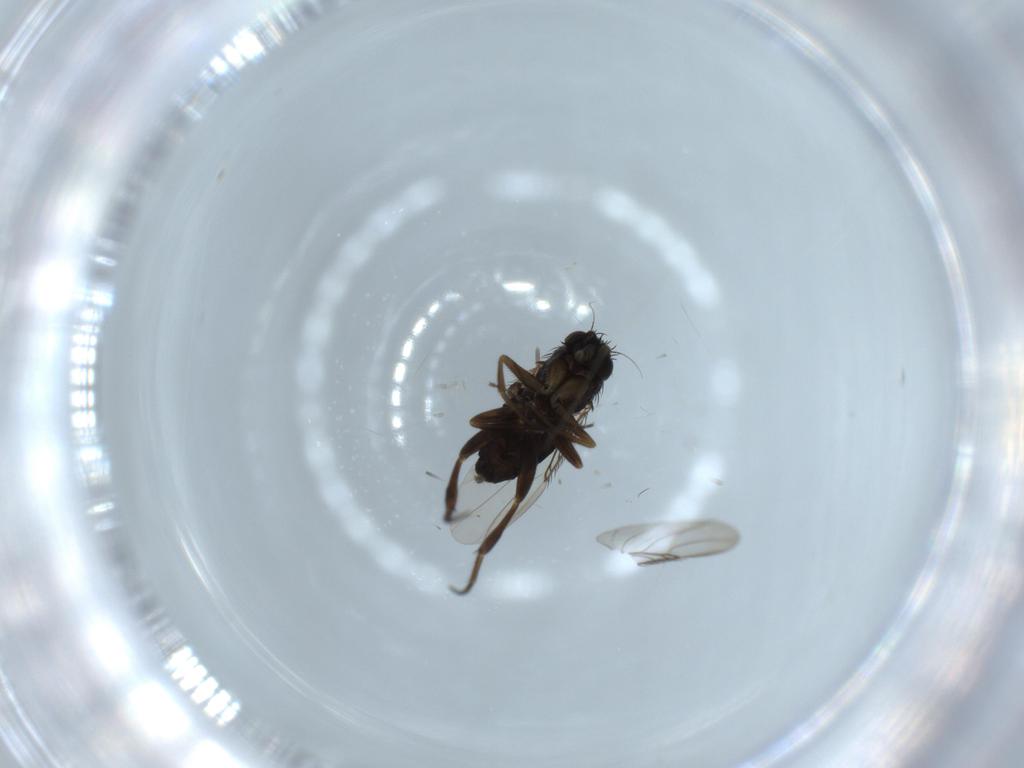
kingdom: Animalia
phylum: Arthropoda
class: Insecta
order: Diptera
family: Phoridae
